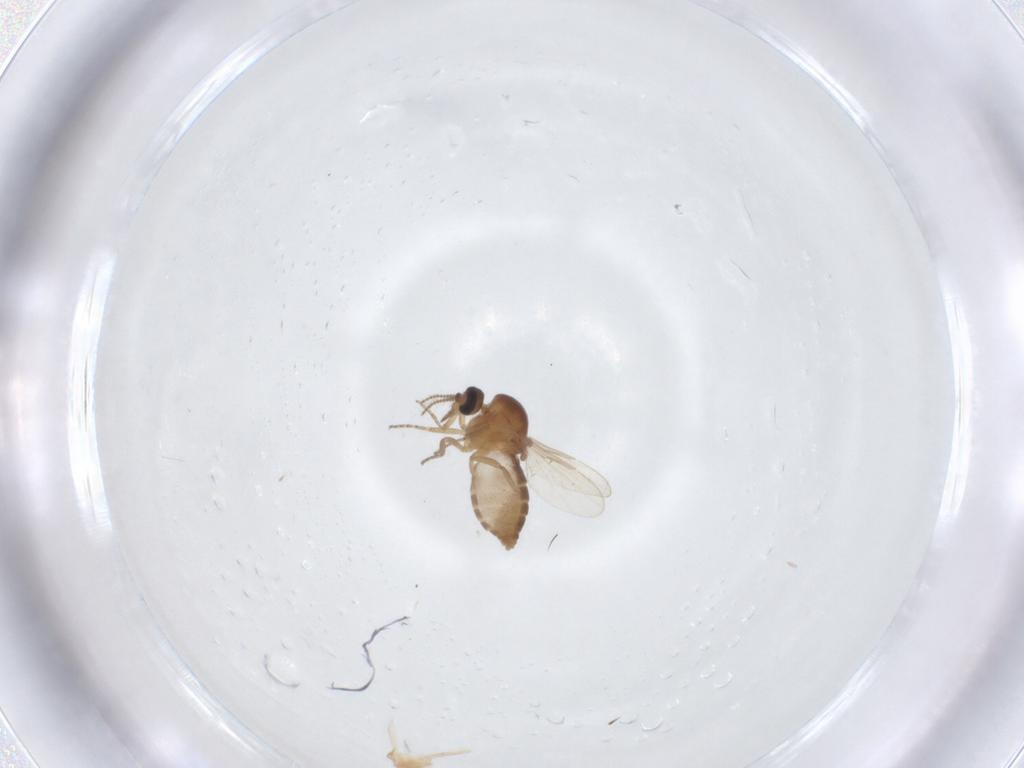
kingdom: Animalia
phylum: Arthropoda
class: Insecta
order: Diptera
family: Ceratopogonidae
